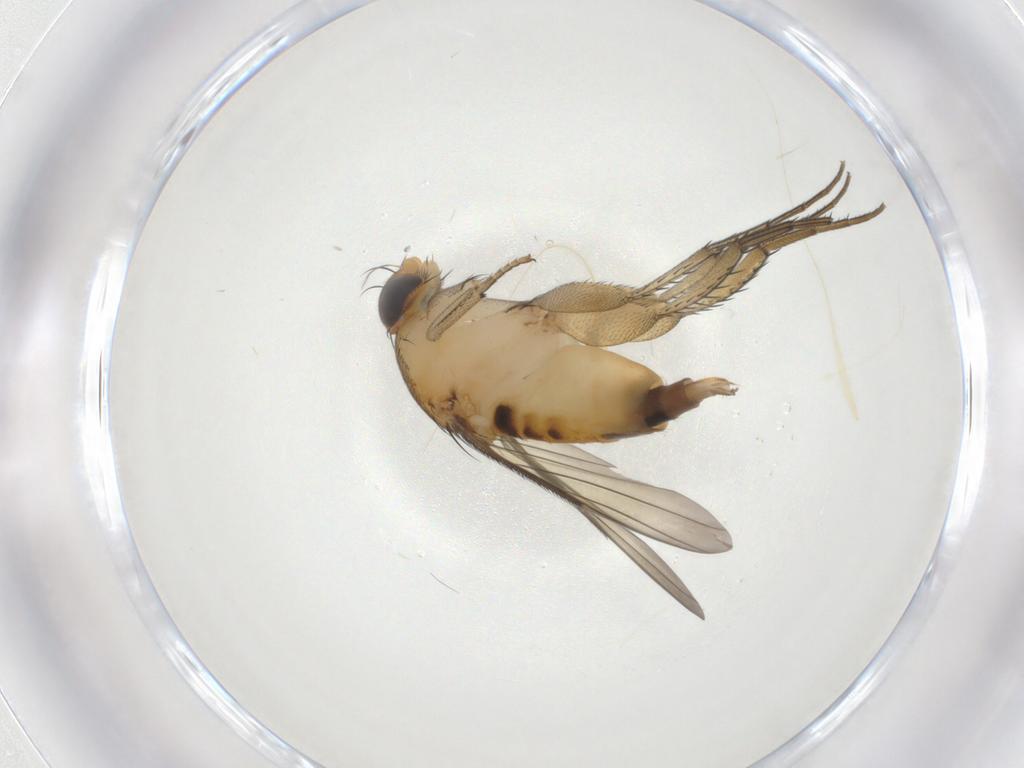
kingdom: Animalia
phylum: Arthropoda
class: Insecta
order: Diptera
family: Phoridae
